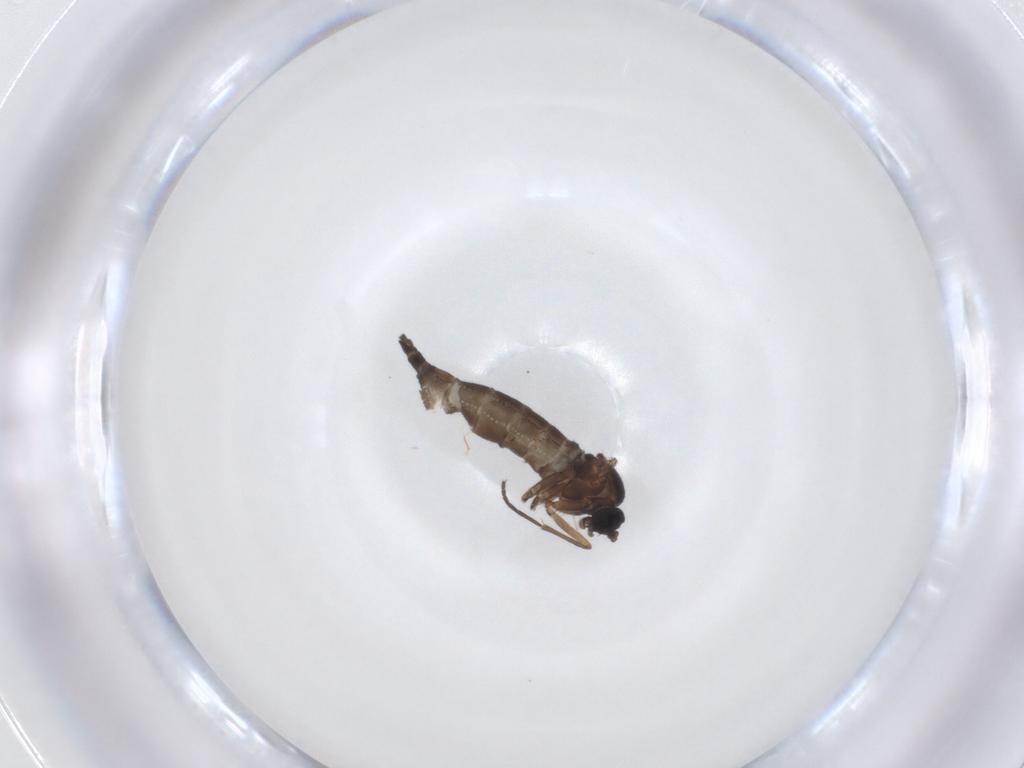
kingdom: Animalia
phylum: Arthropoda
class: Insecta
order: Diptera
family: Sciaridae
